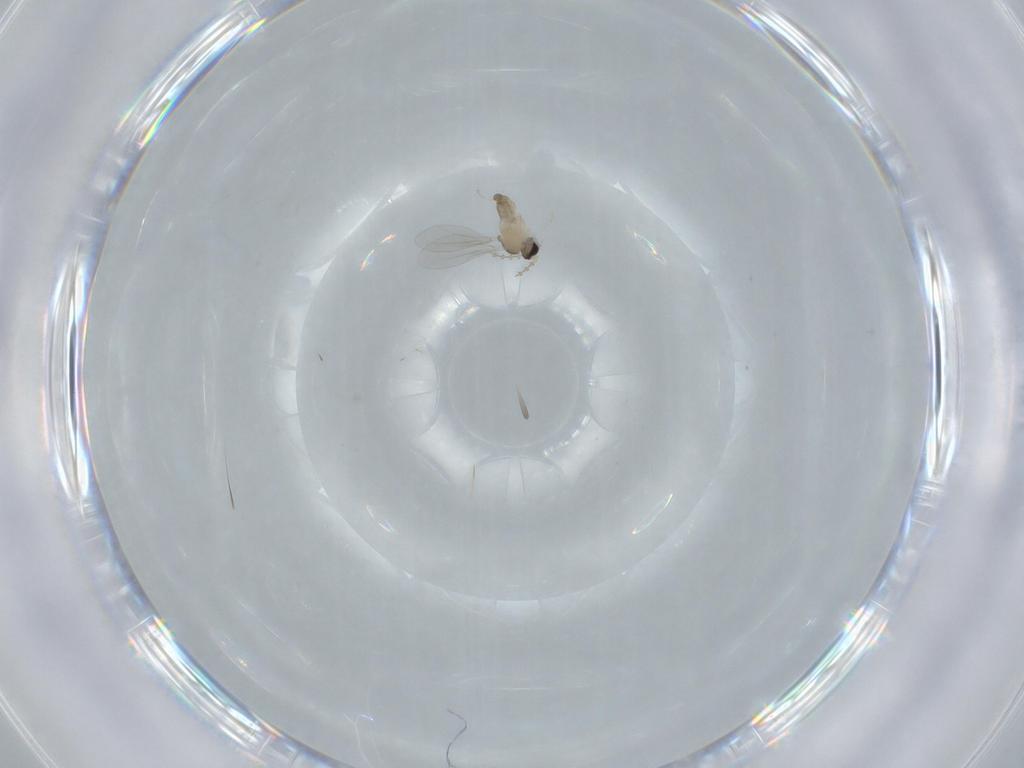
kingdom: Animalia
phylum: Arthropoda
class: Insecta
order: Diptera
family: Cecidomyiidae
